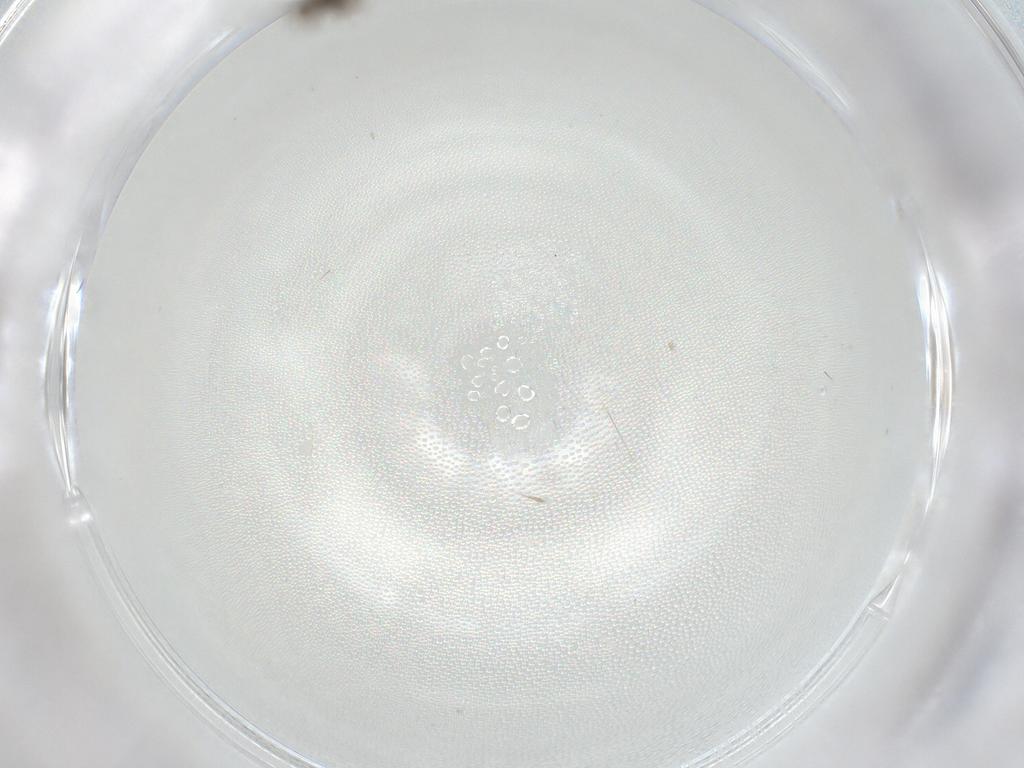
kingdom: Animalia
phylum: Arthropoda
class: Insecta
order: Diptera
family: Psychodidae
